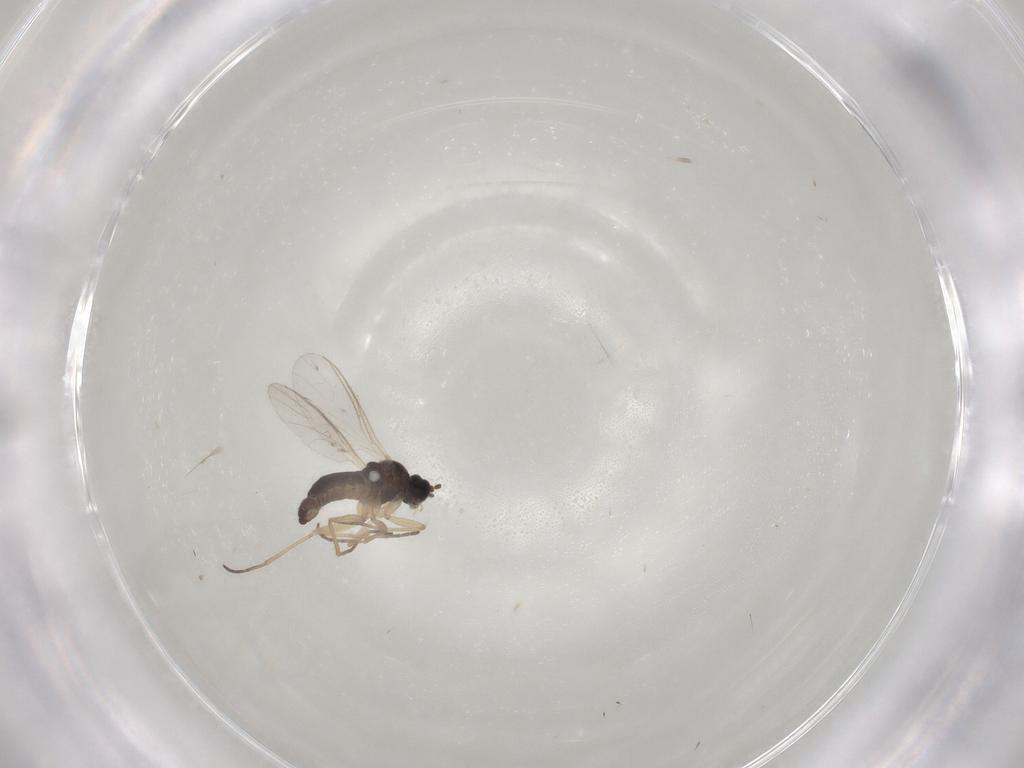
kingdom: Animalia
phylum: Arthropoda
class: Insecta
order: Diptera
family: Sciaridae
